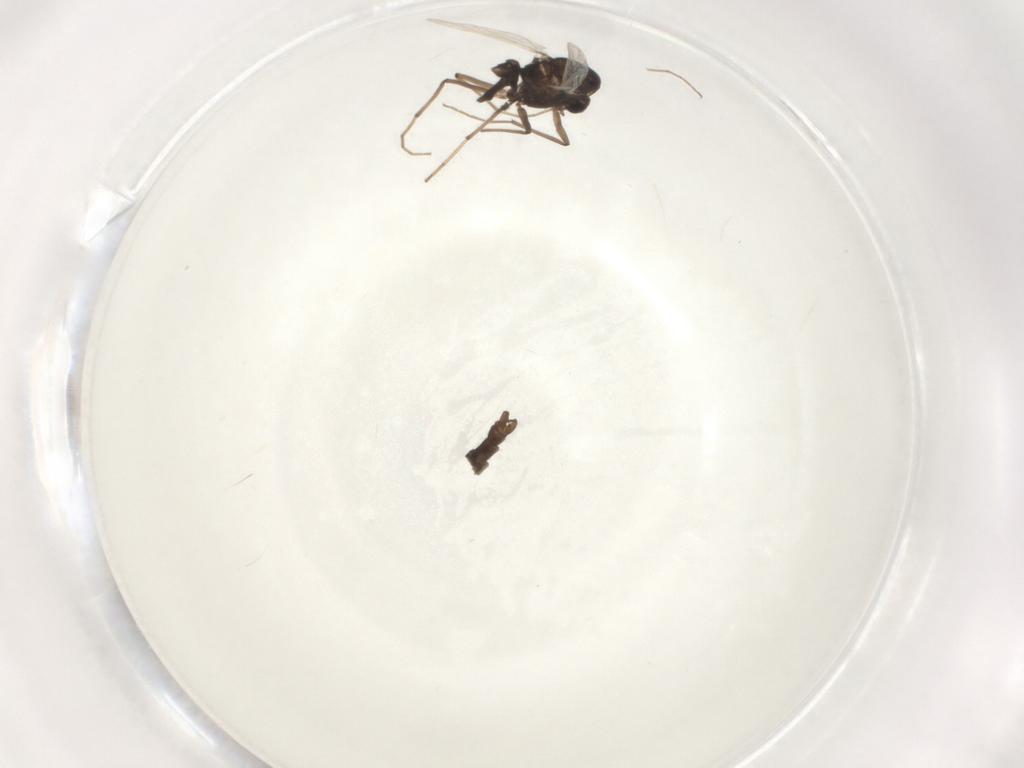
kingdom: Animalia
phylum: Arthropoda
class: Insecta
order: Diptera
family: Chironomidae
